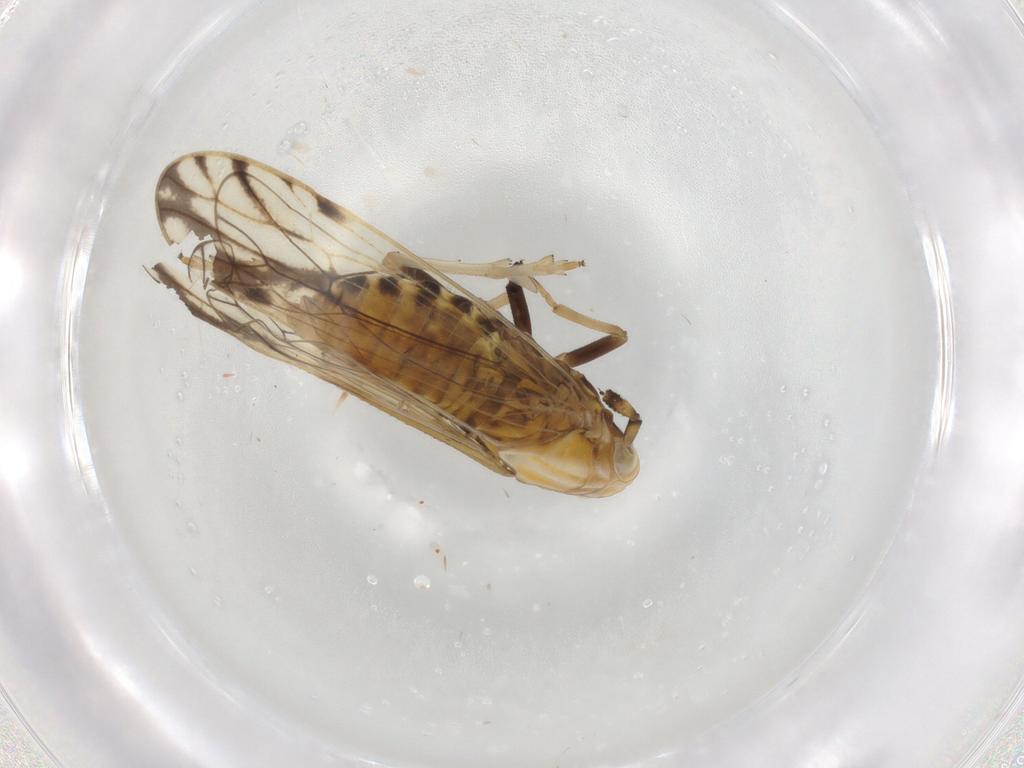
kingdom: Animalia
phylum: Arthropoda
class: Insecta
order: Hemiptera
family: Delphacidae
